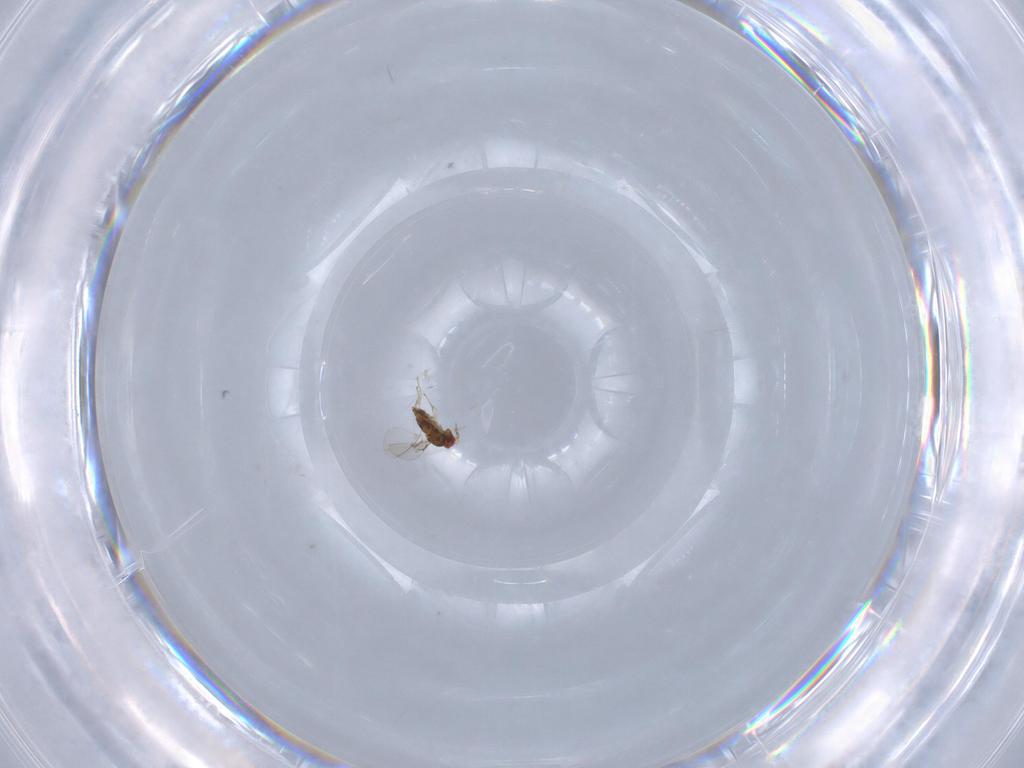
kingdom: Animalia
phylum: Arthropoda
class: Insecta
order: Hymenoptera
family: Trichogrammatidae
